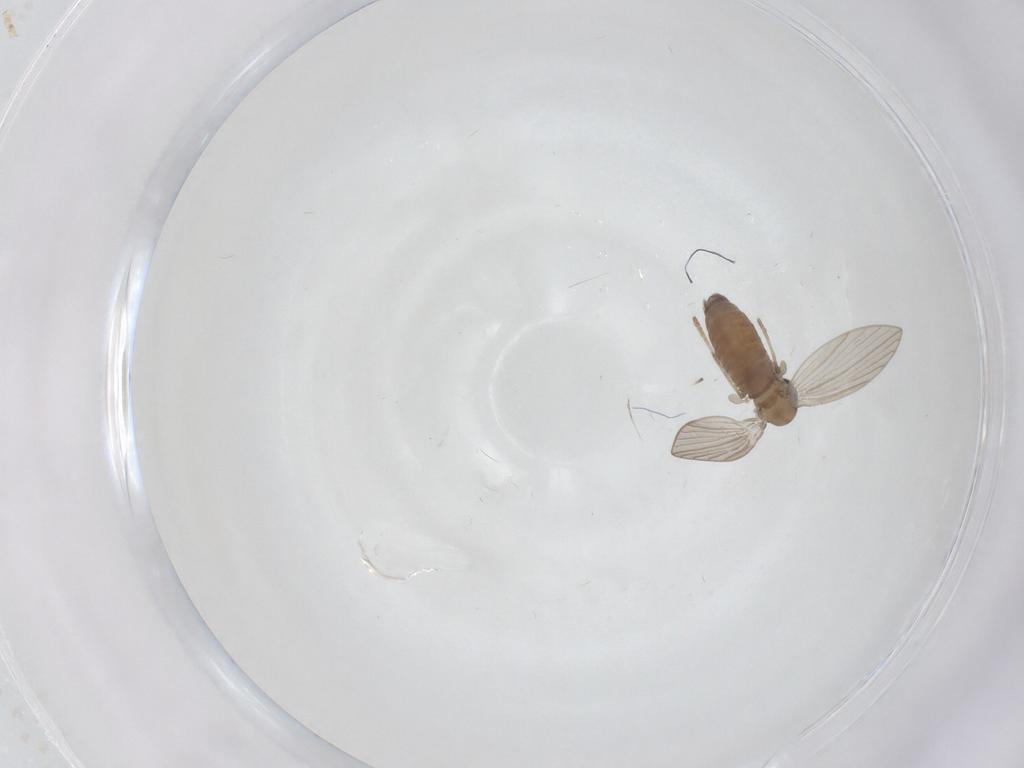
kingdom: Animalia
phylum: Arthropoda
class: Insecta
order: Diptera
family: Psychodidae
